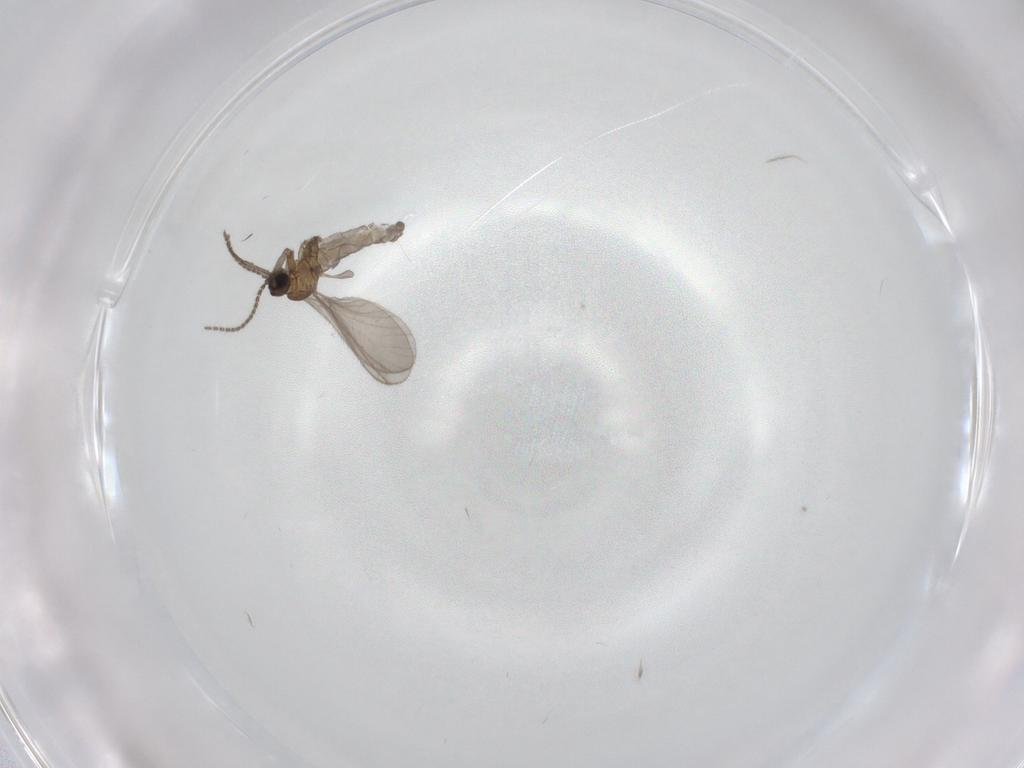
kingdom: Animalia
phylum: Arthropoda
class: Insecta
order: Diptera
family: Sciaridae
